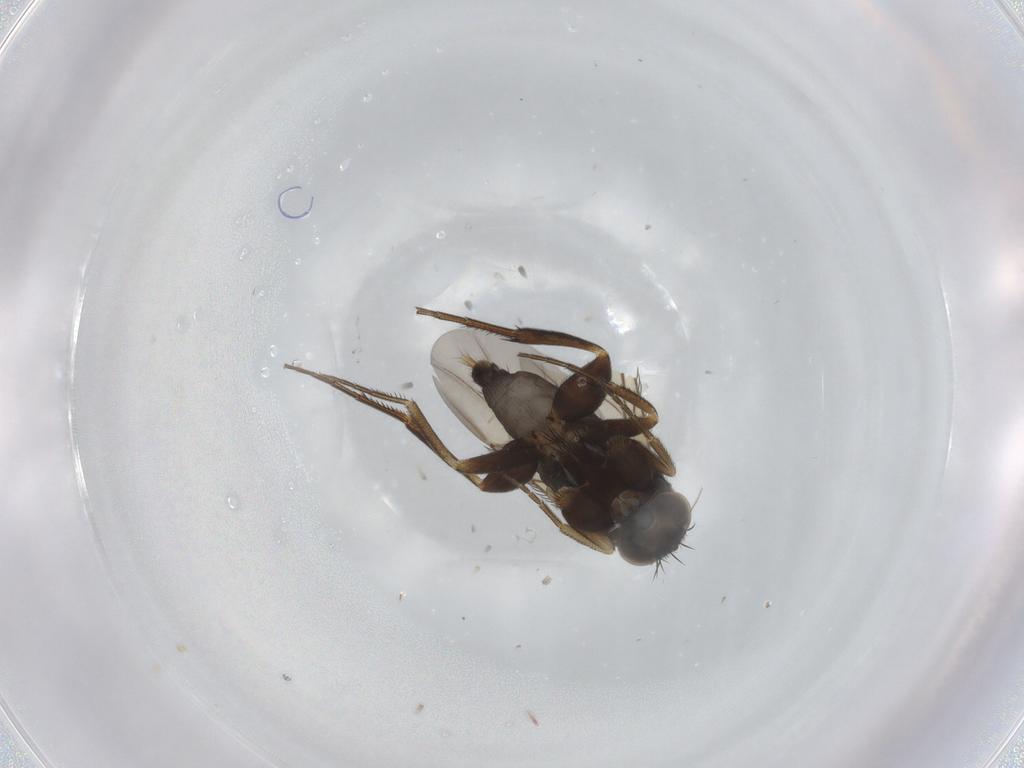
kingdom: Animalia
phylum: Arthropoda
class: Insecta
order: Diptera
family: Phoridae
